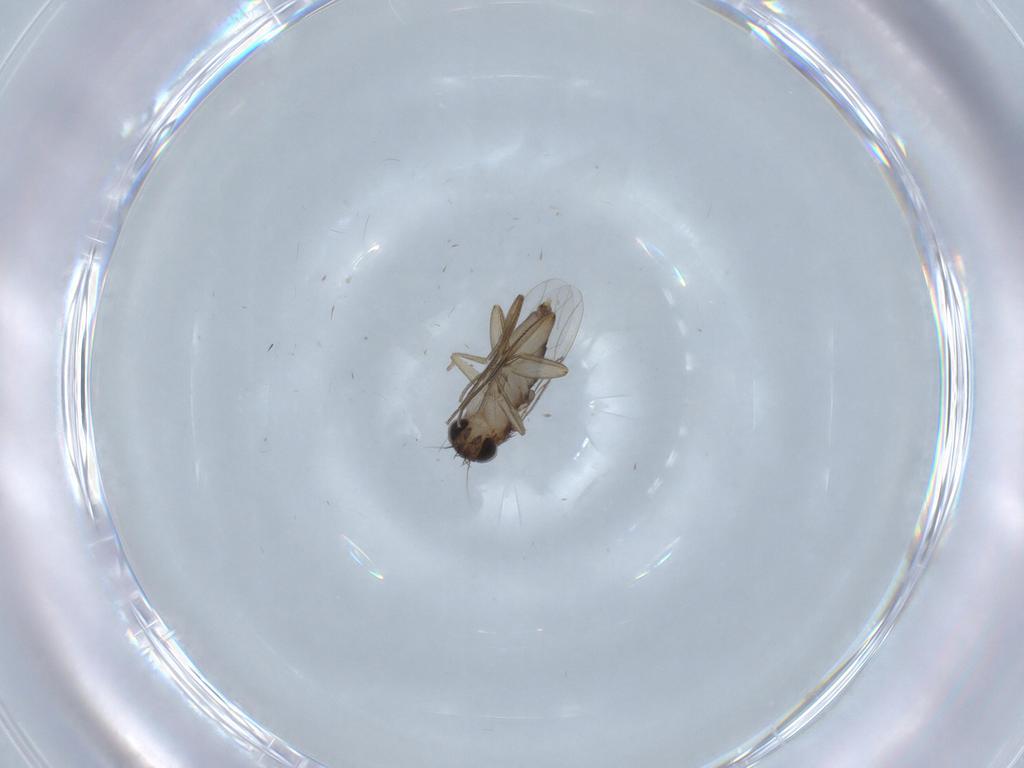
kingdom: Animalia
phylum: Arthropoda
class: Insecta
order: Diptera
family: Phoridae
